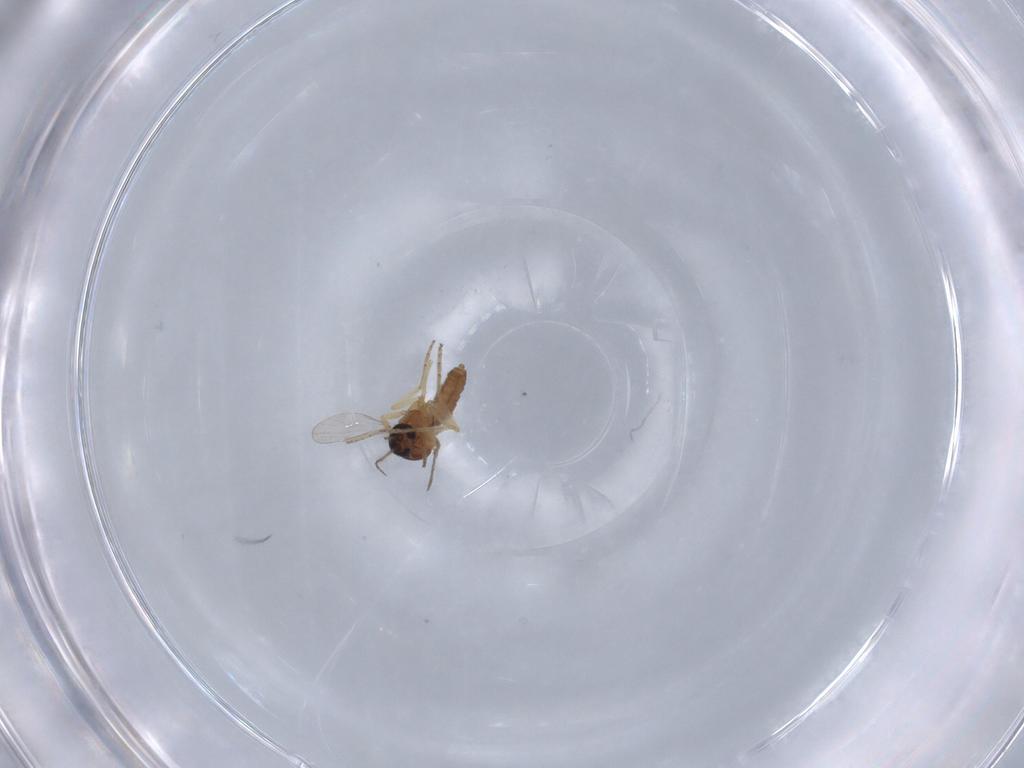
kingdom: Animalia
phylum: Arthropoda
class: Insecta
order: Diptera
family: Ceratopogonidae
